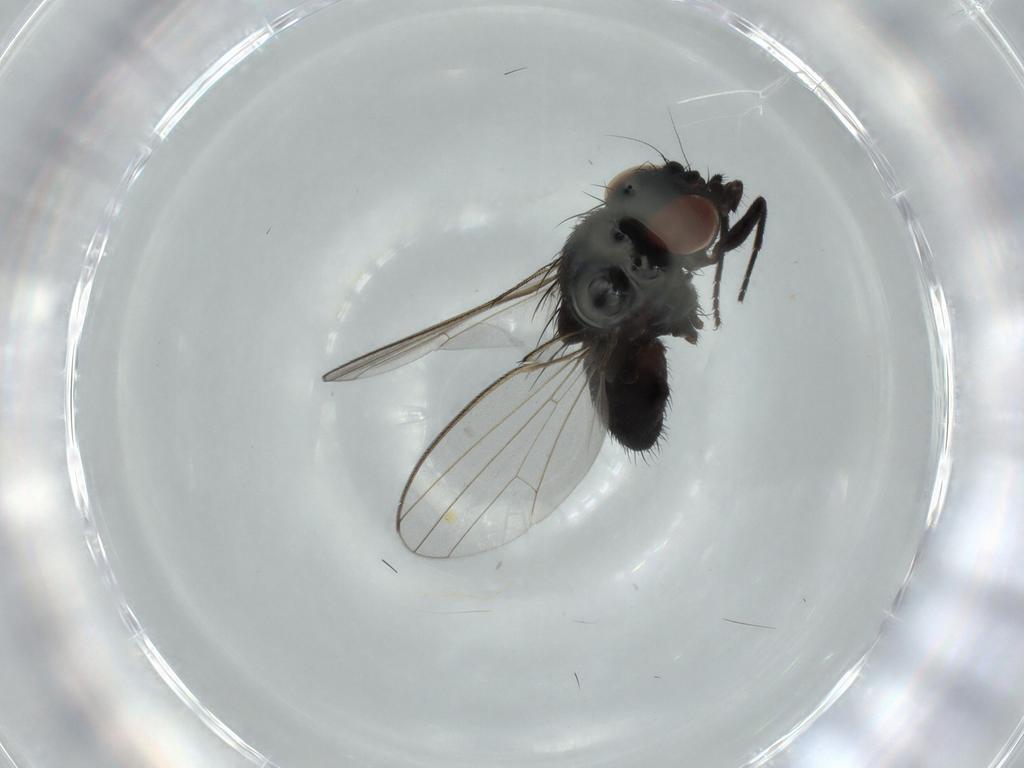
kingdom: Animalia
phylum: Arthropoda
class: Insecta
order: Diptera
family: Milichiidae
